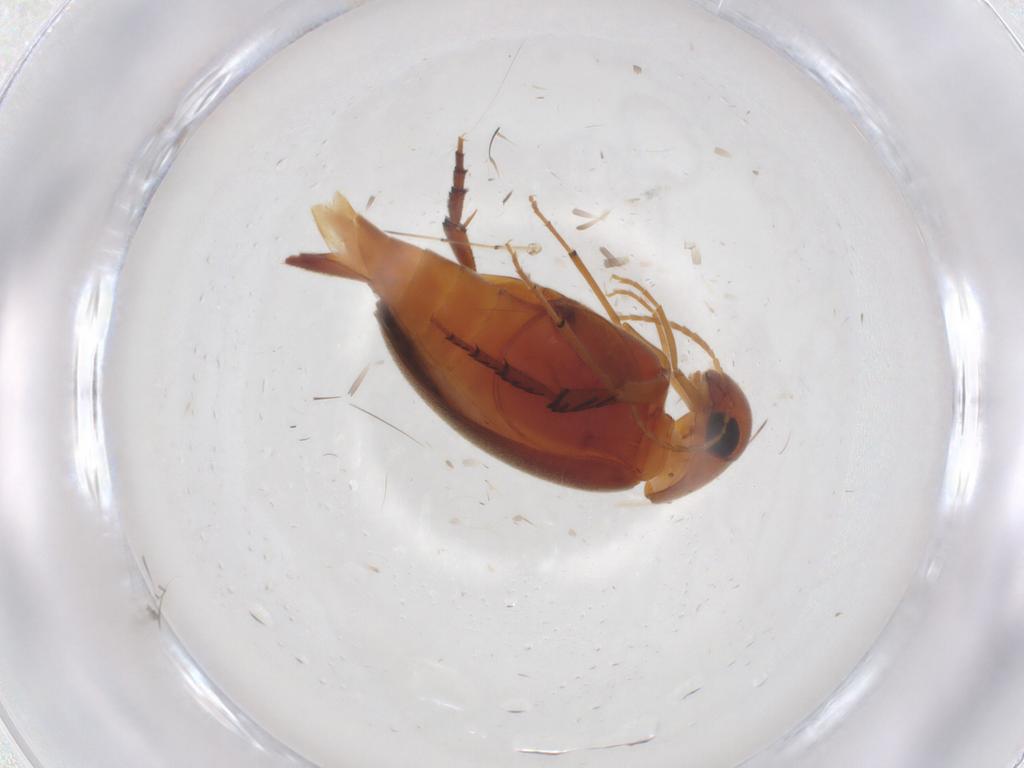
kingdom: Animalia
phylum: Arthropoda
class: Insecta
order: Coleoptera
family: Mordellidae
